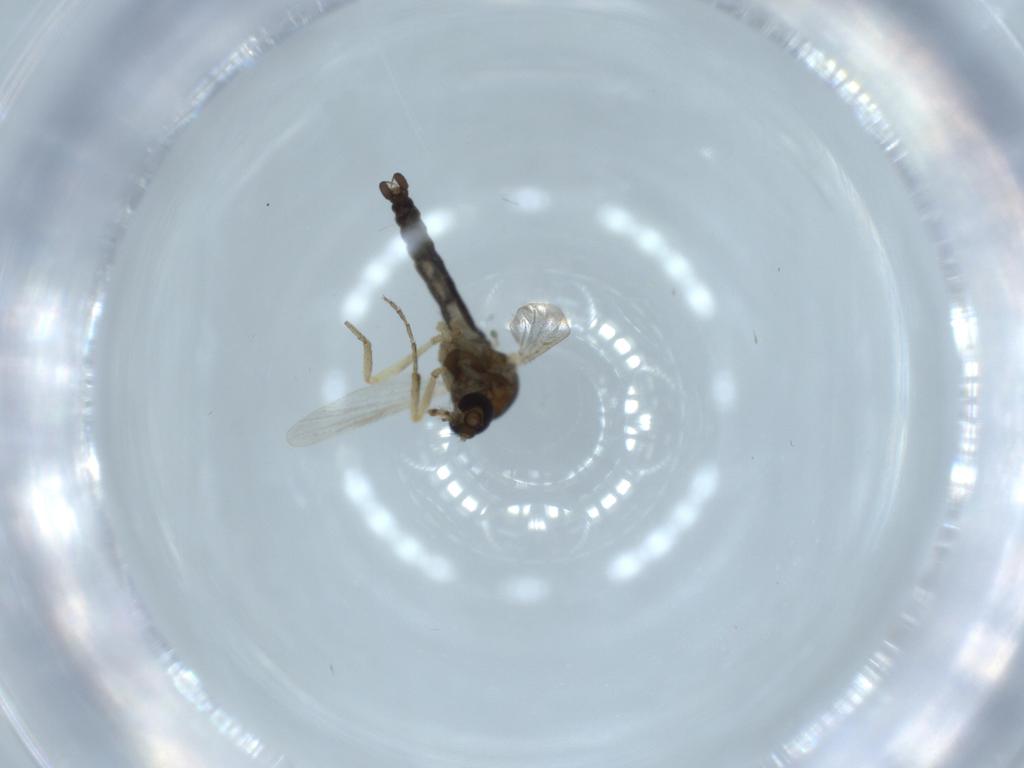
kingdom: Animalia
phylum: Arthropoda
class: Insecta
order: Diptera
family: Ceratopogonidae
